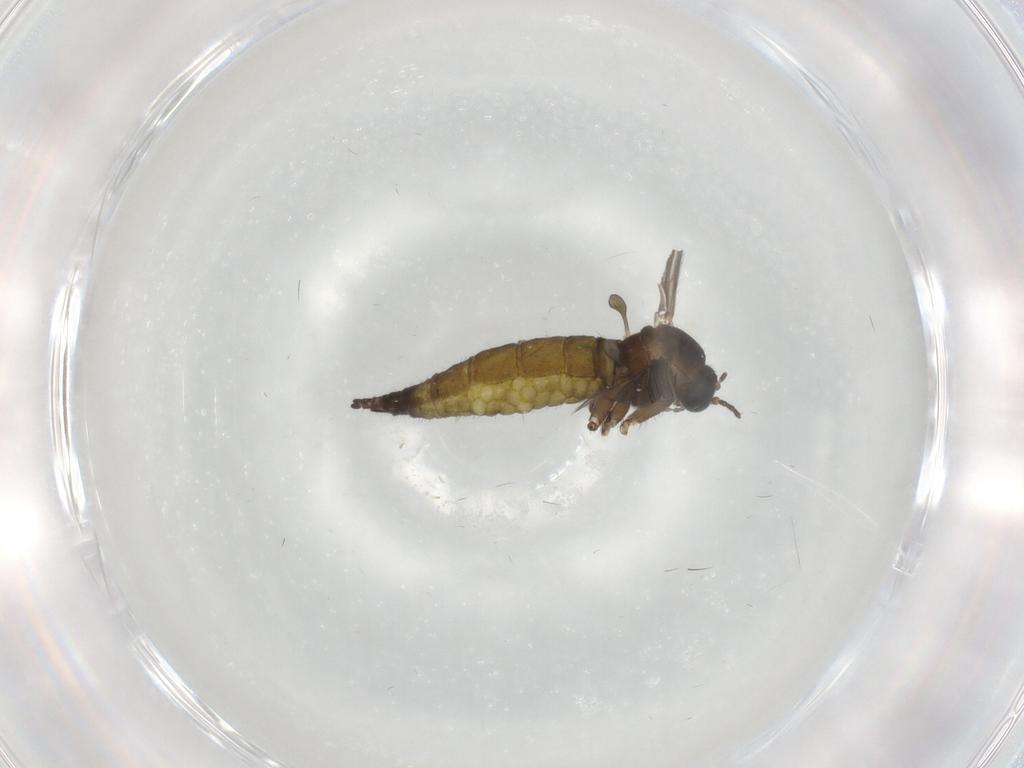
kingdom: Animalia
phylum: Arthropoda
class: Insecta
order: Diptera
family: Sciaridae
